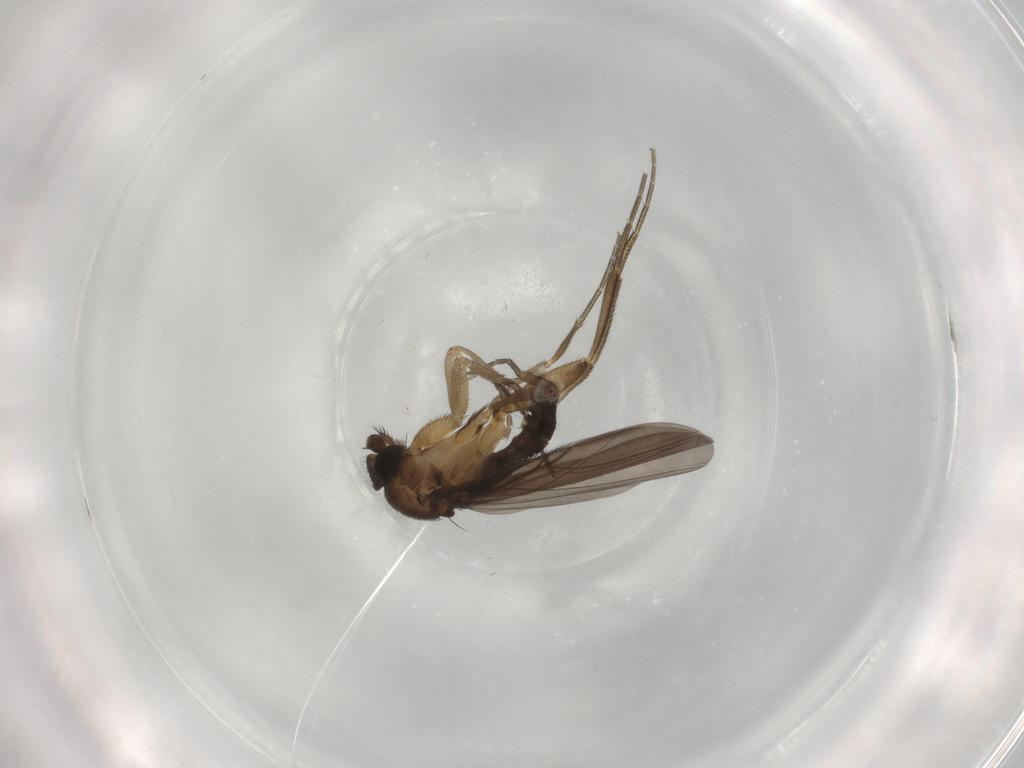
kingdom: Animalia
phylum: Arthropoda
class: Insecta
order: Diptera
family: Phoridae
